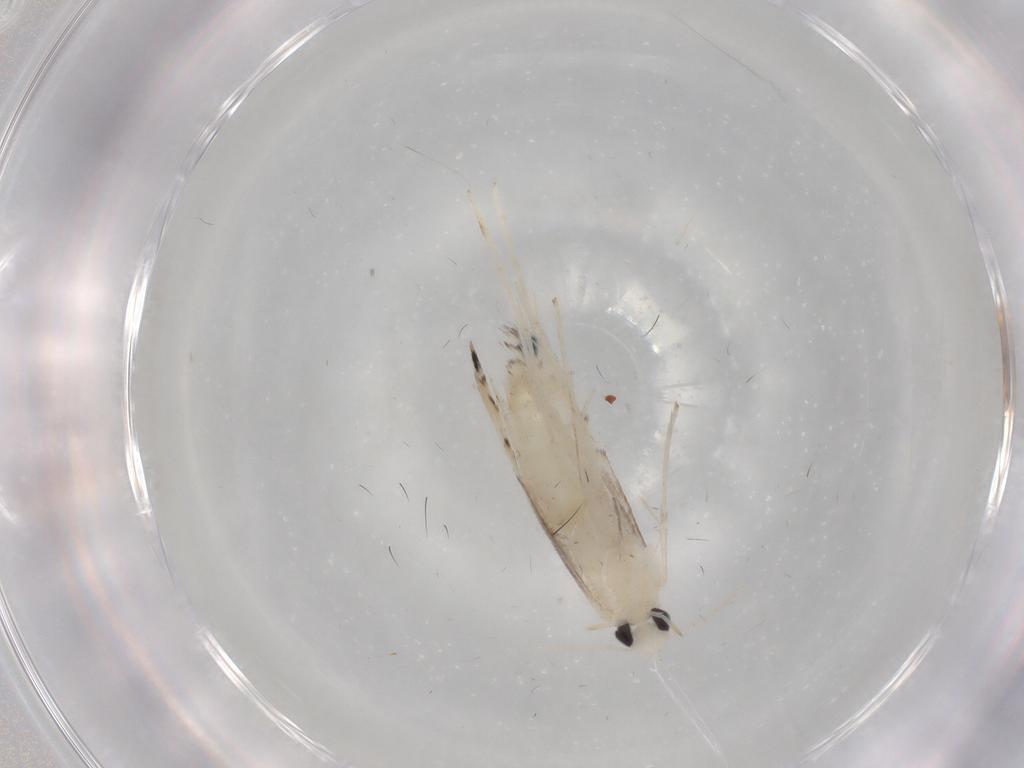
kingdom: Animalia
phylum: Arthropoda
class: Insecta
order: Lepidoptera
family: Gracillariidae
